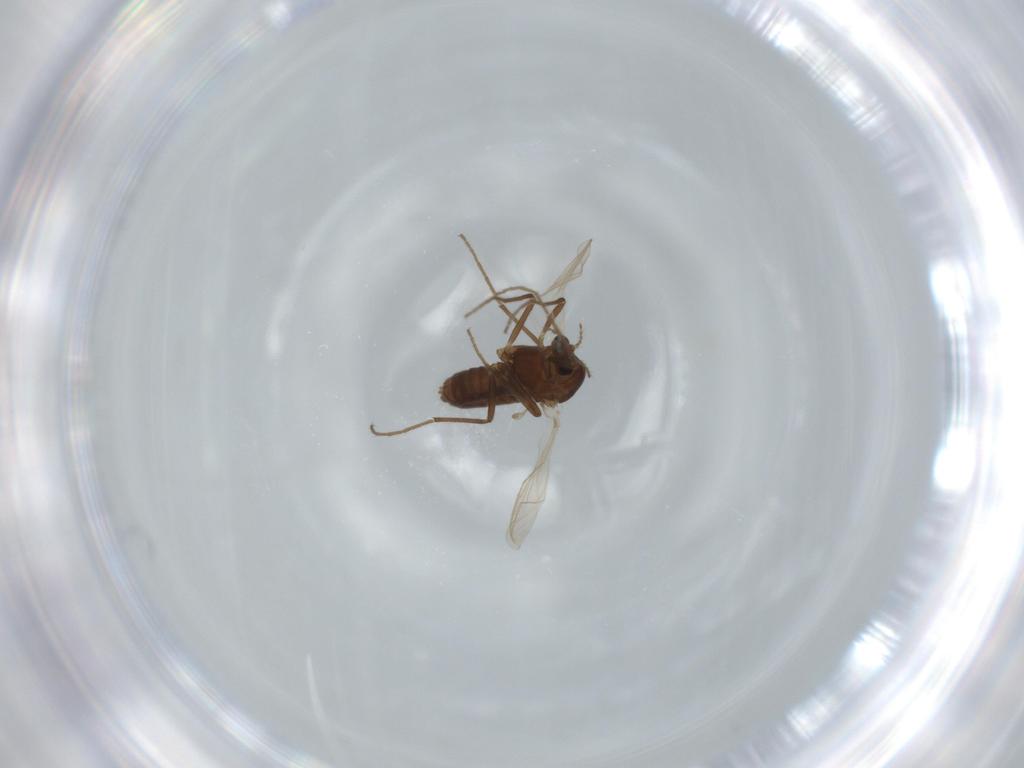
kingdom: Animalia
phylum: Arthropoda
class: Insecta
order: Diptera
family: Chironomidae
